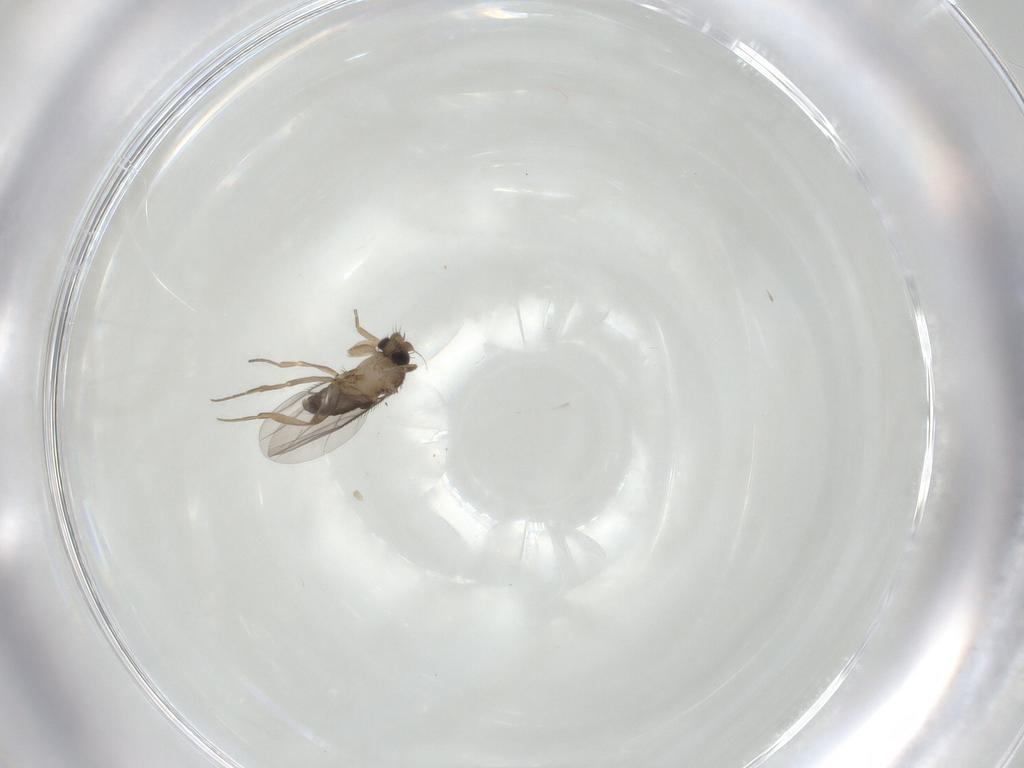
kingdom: Animalia
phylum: Arthropoda
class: Insecta
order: Diptera
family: Phoridae
